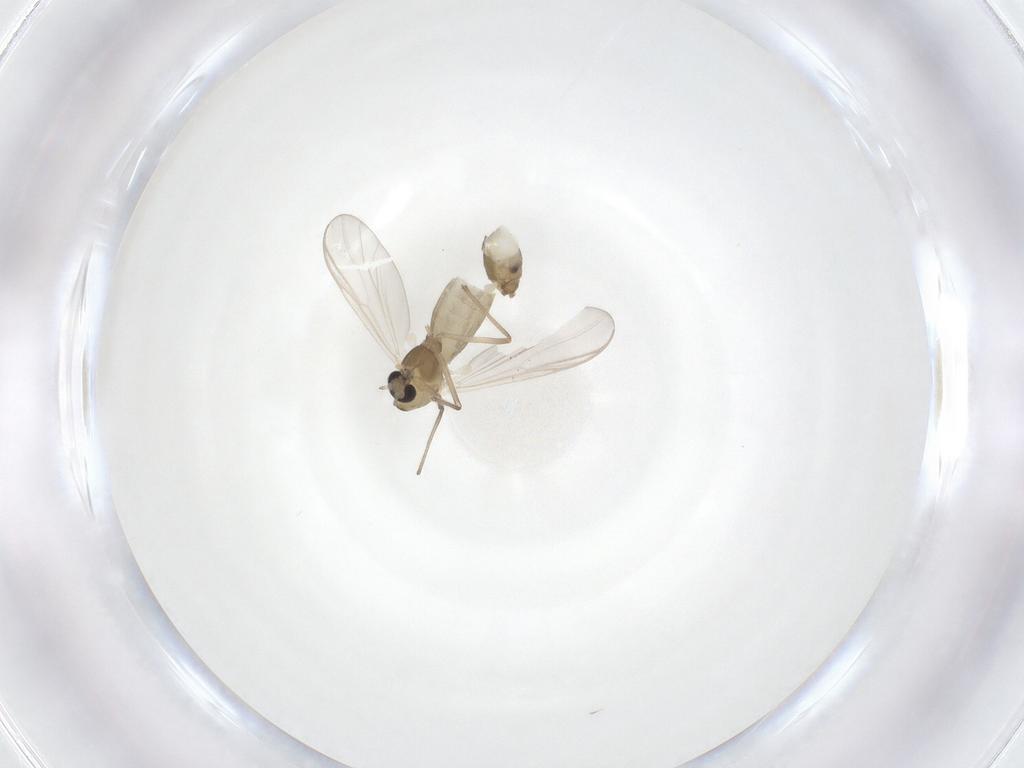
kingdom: Animalia
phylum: Arthropoda
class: Insecta
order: Diptera
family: Chironomidae
